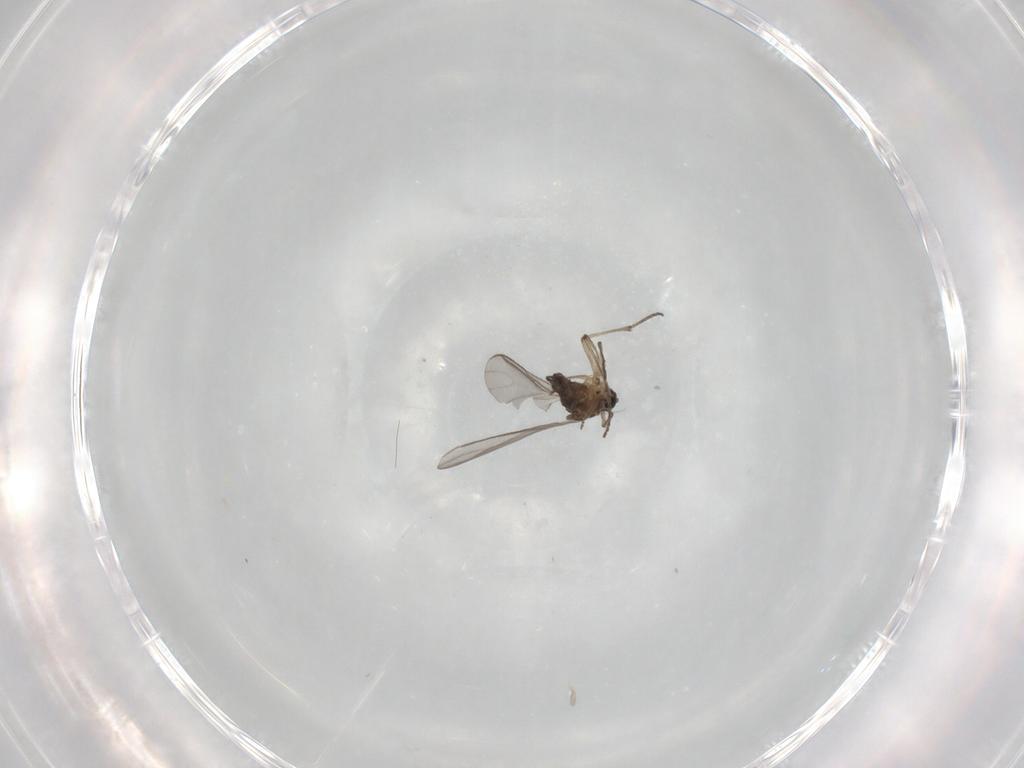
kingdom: Animalia
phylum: Arthropoda
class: Insecta
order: Diptera
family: Sciaridae
